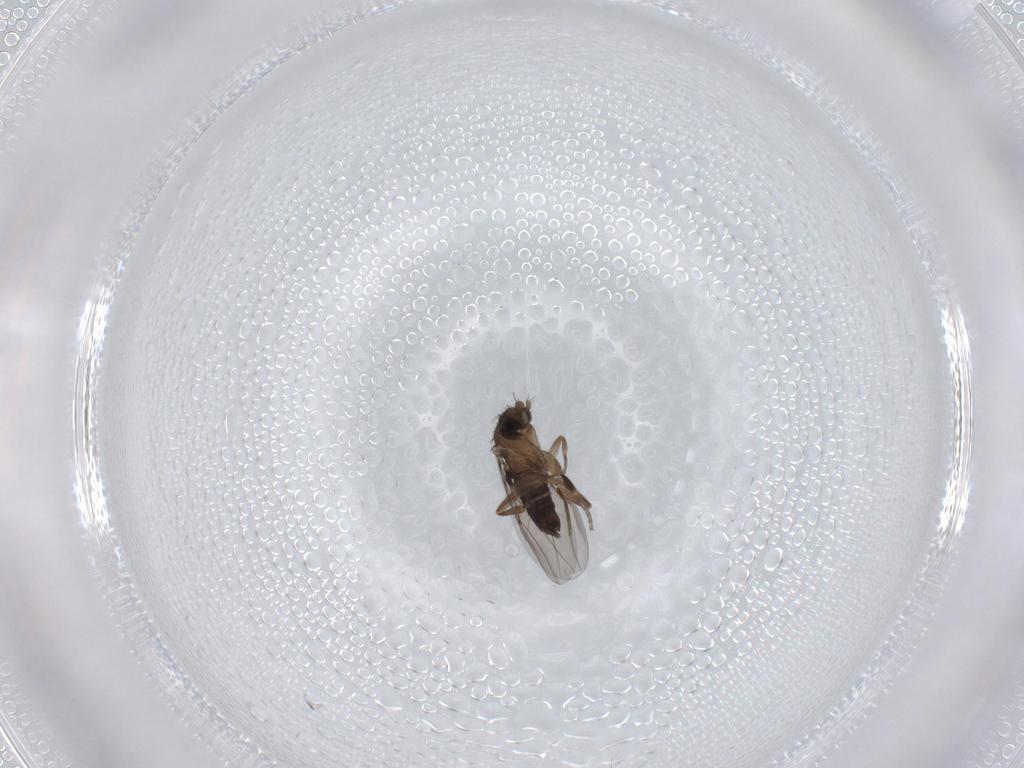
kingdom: Animalia
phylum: Arthropoda
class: Insecta
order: Diptera
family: Phoridae
